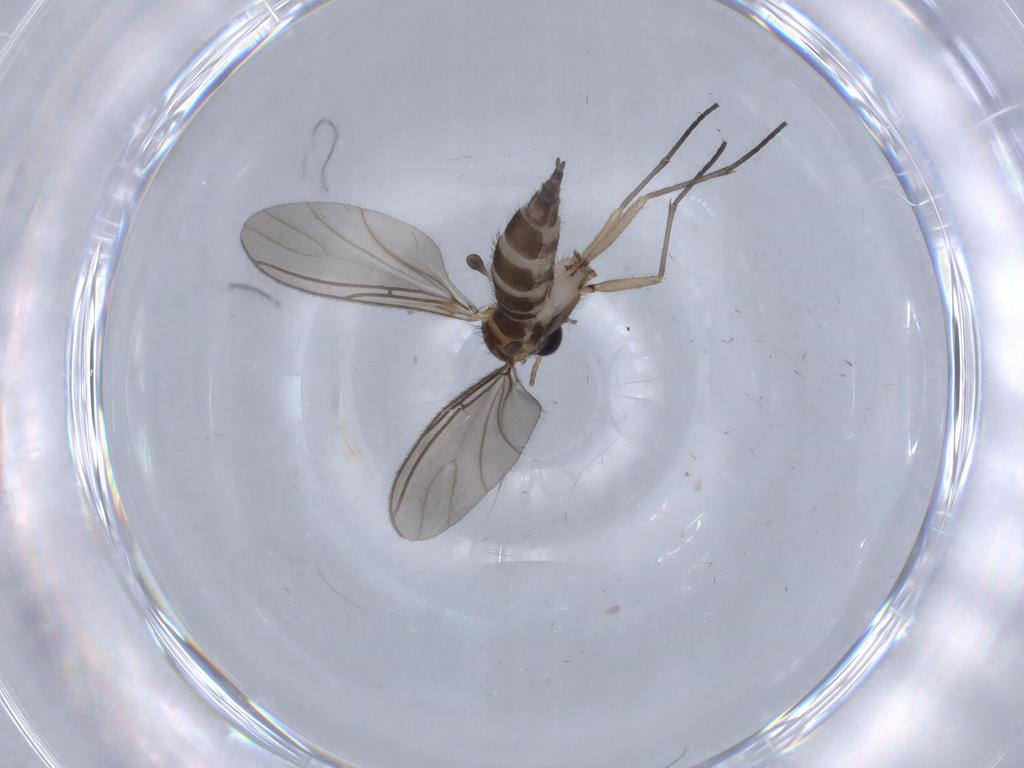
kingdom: Animalia
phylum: Arthropoda
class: Insecta
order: Diptera
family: Sciaridae
